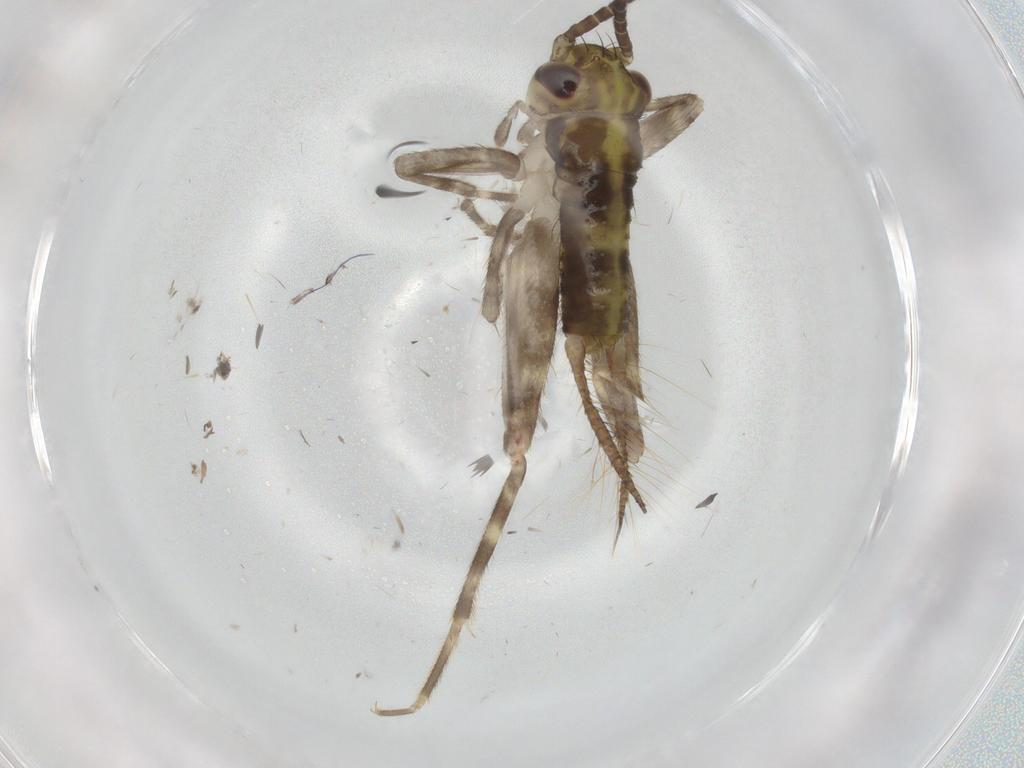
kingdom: Animalia
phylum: Arthropoda
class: Insecta
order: Orthoptera
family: Gryllidae
